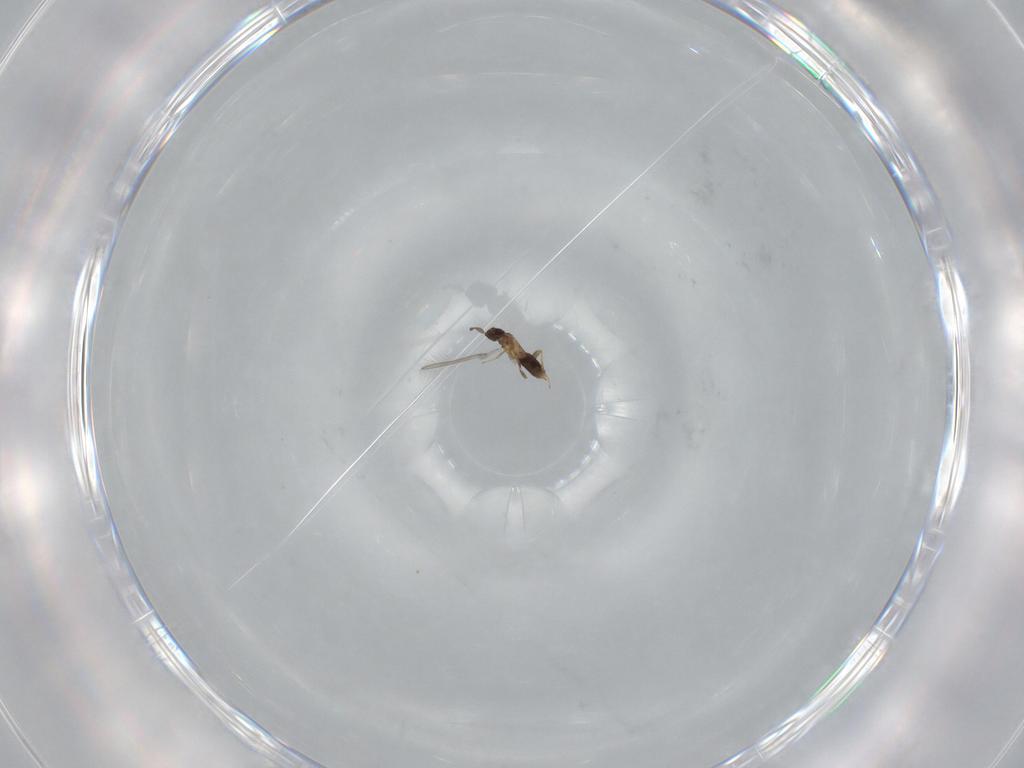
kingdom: Animalia
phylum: Arthropoda
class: Insecta
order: Hymenoptera
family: Mymaridae
